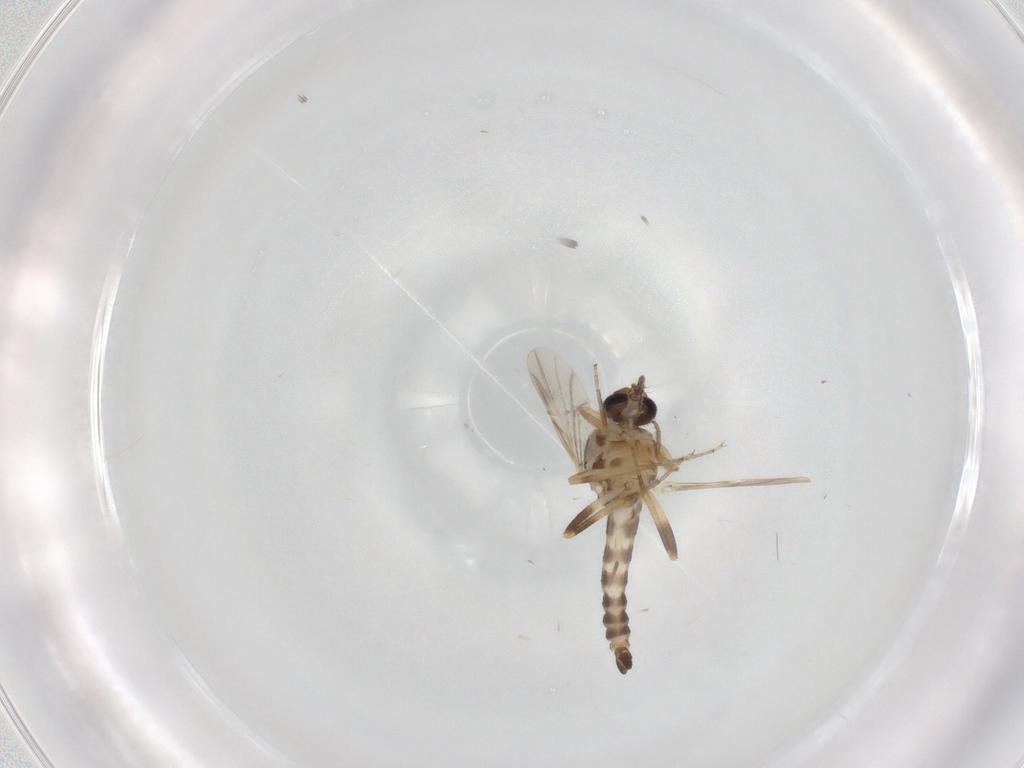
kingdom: Animalia
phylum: Arthropoda
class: Insecta
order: Diptera
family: Ceratopogonidae
